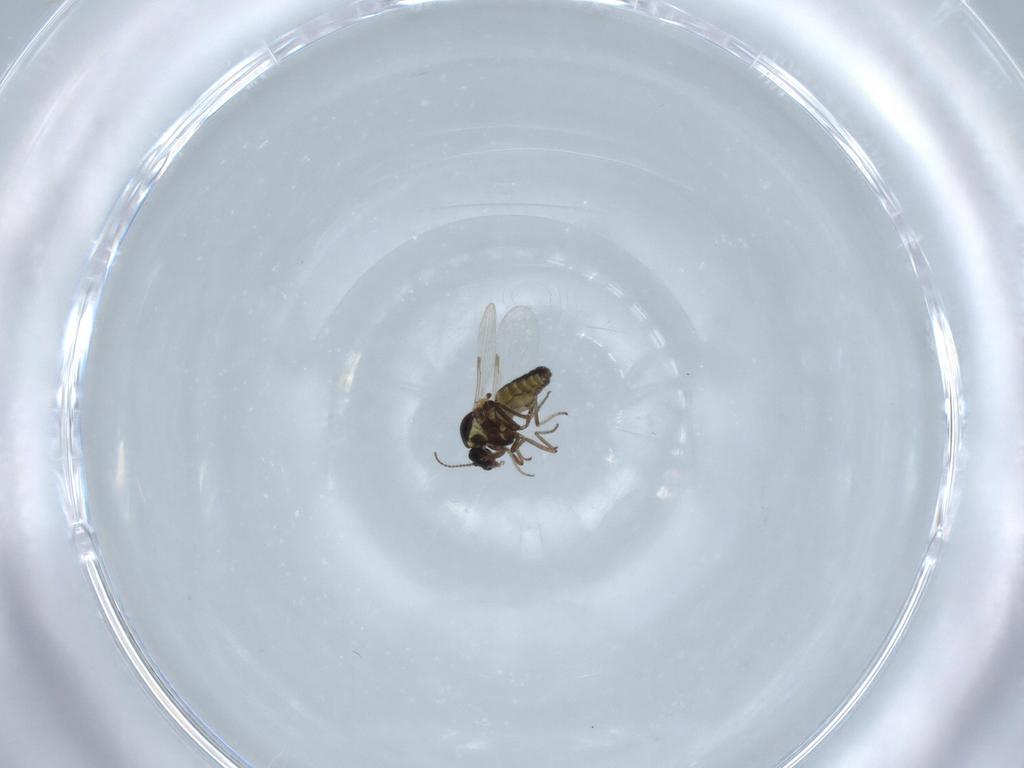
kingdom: Animalia
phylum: Arthropoda
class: Insecta
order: Diptera
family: Ceratopogonidae
